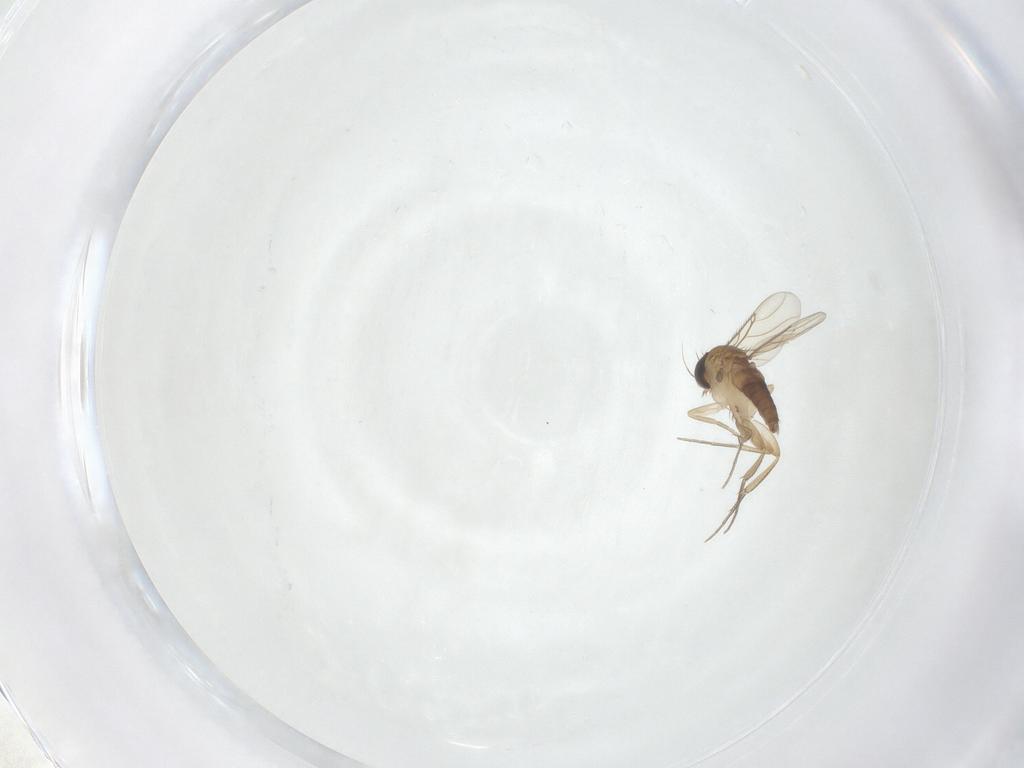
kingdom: Animalia
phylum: Arthropoda
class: Insecta
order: Diptera
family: Phoridae
